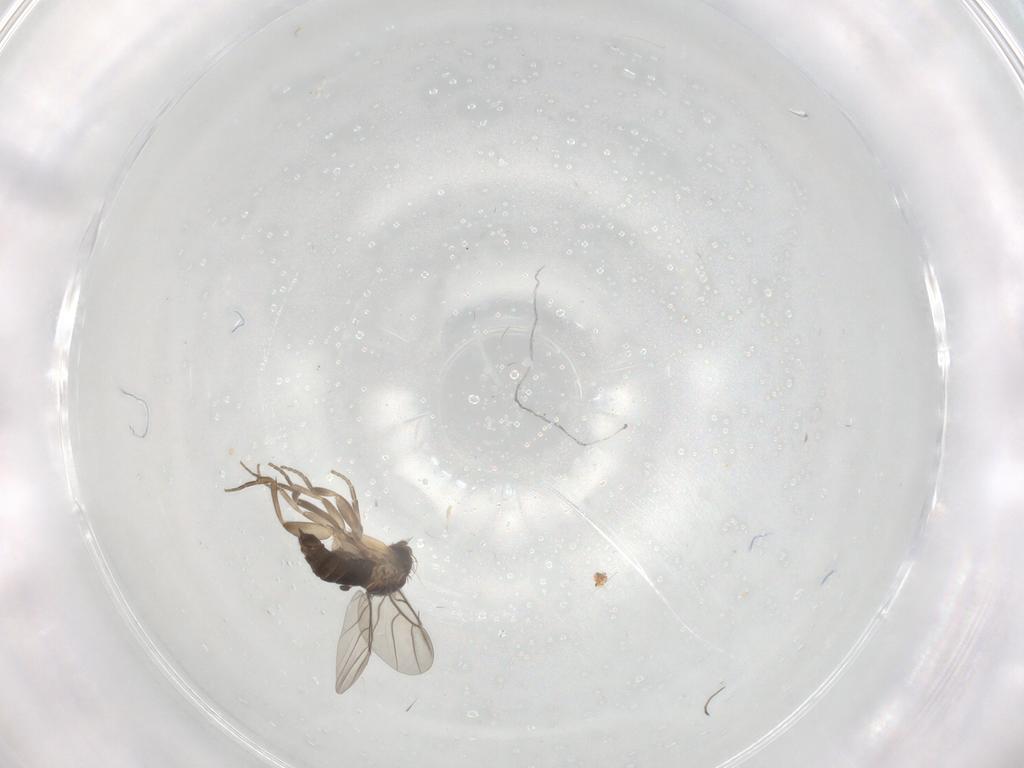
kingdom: Animalia
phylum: Arthropoda
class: Insecta
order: Diptera
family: Phoridae
